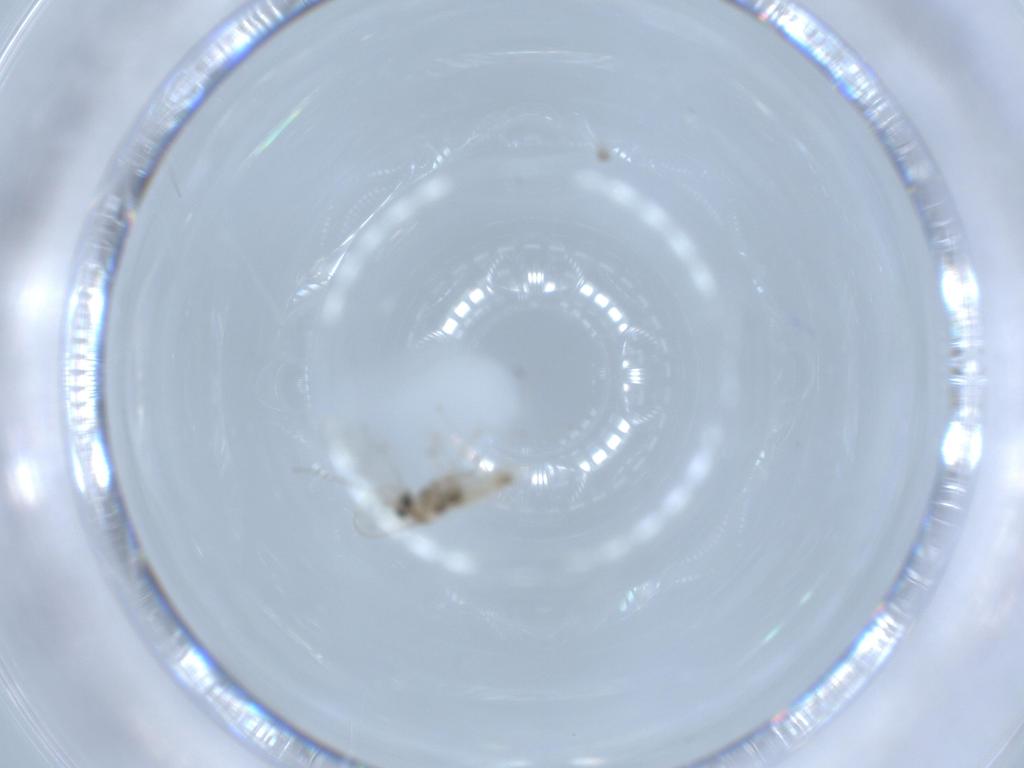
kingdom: Animalia
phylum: Arthropoda
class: Insecta
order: Diptera
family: Cecidomyiidae
